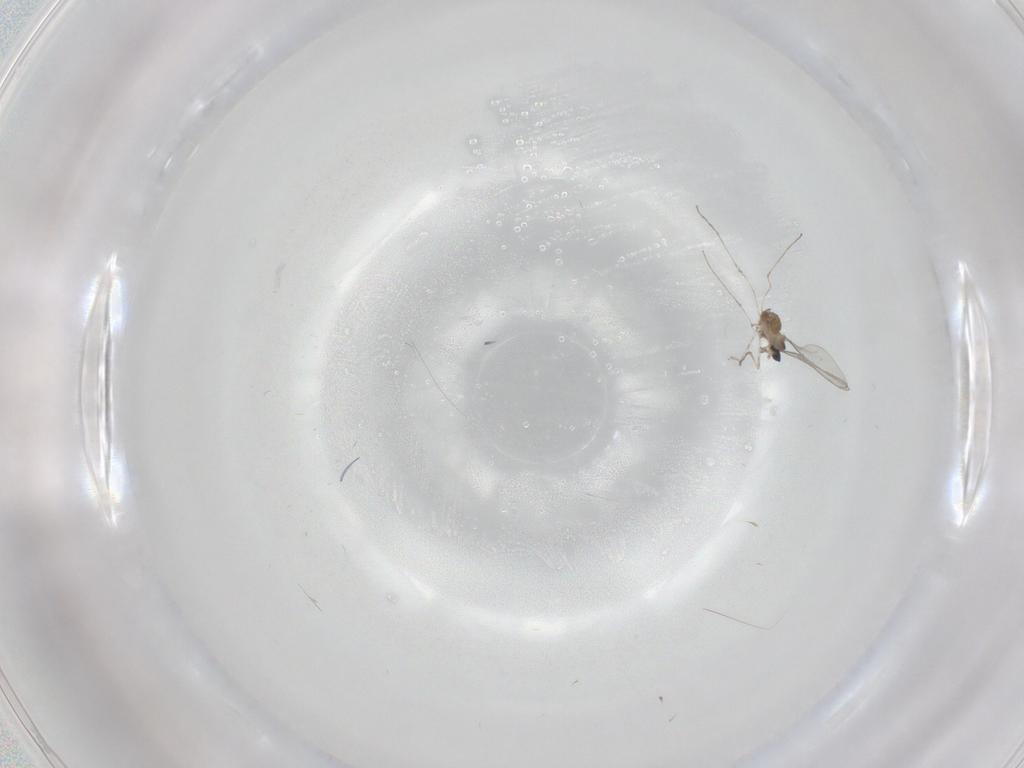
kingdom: Animalia
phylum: Arthropoda
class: Insecta
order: Diptera
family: Cecidomyiidae
